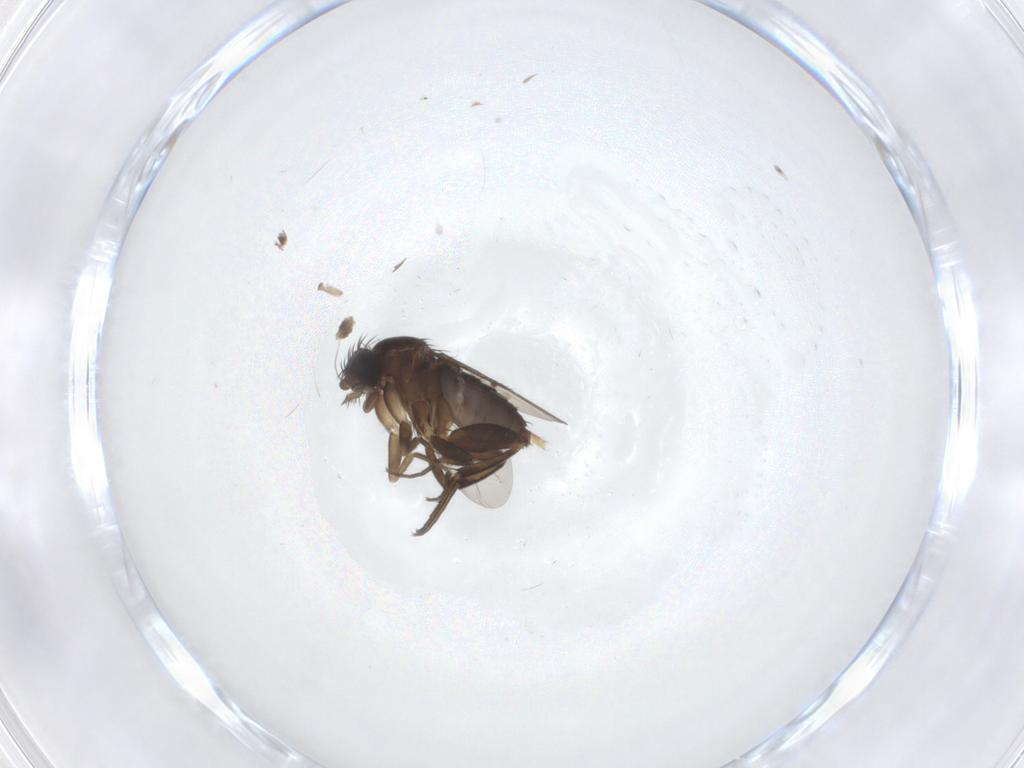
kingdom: Animalia
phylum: Arthropoda
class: Insecta
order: Diptera
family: Phoridae
